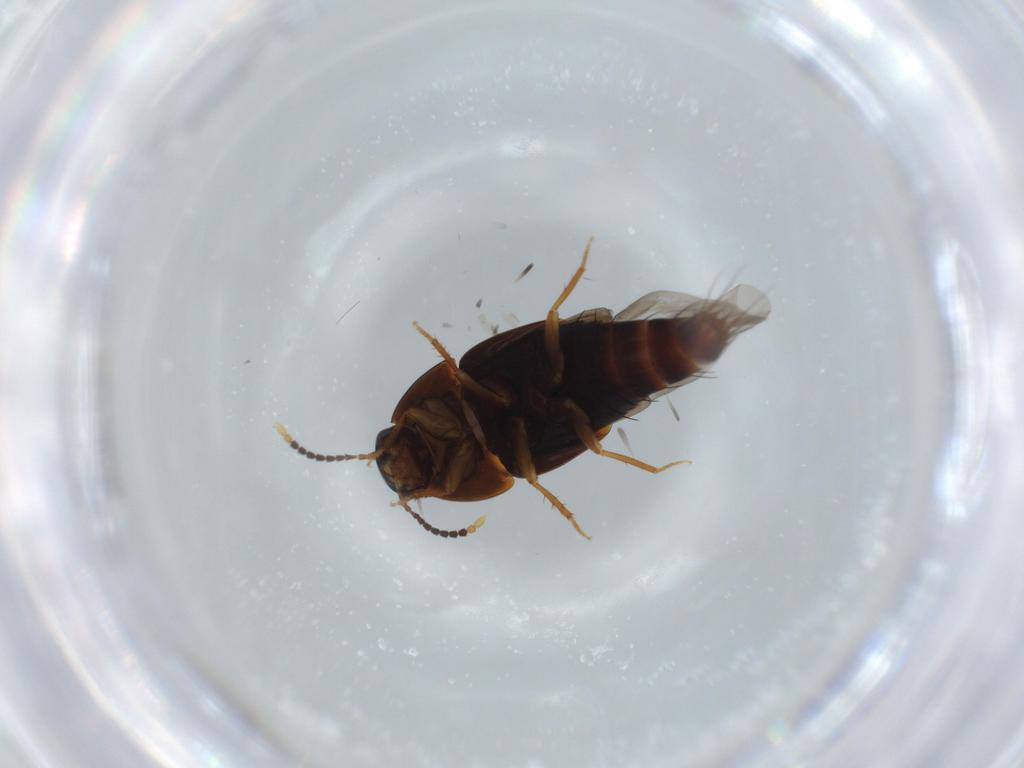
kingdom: Animalia
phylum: Arthropoda
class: Insecta
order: Coleoptera
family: Staphylinidae
